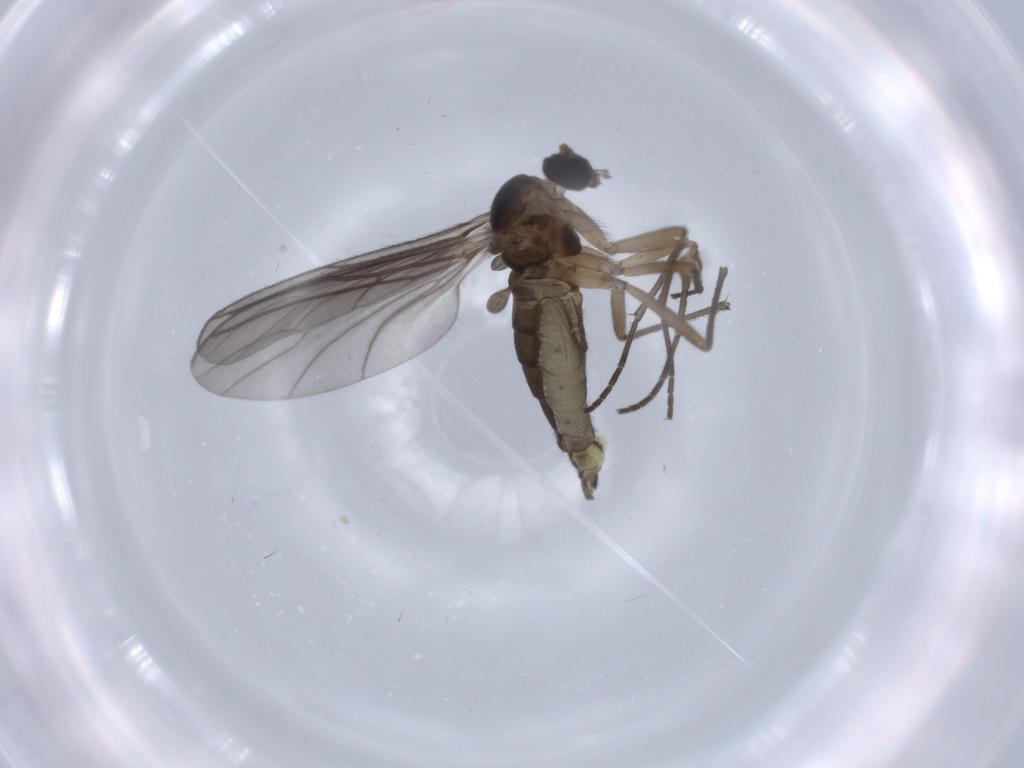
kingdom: Animalia
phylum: Arthropoda
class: Insecta
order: Diptera
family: Sciaridae
